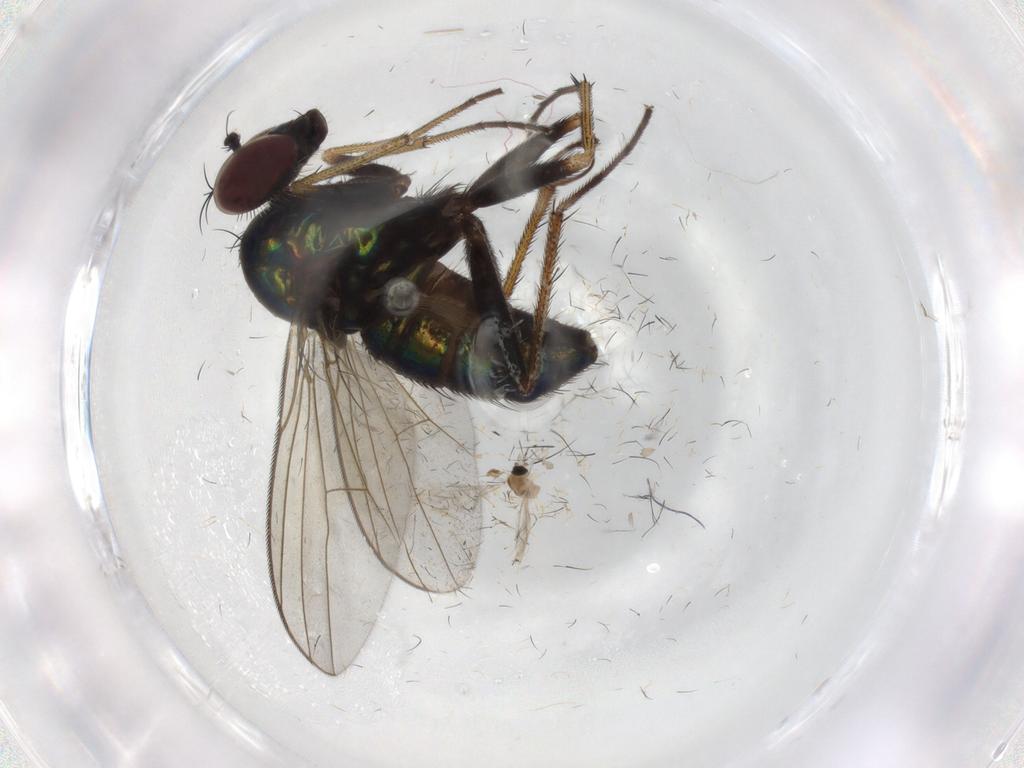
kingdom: Animalia
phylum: Arthropoda
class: Insecta
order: Diptera
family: Dolichopodidae
